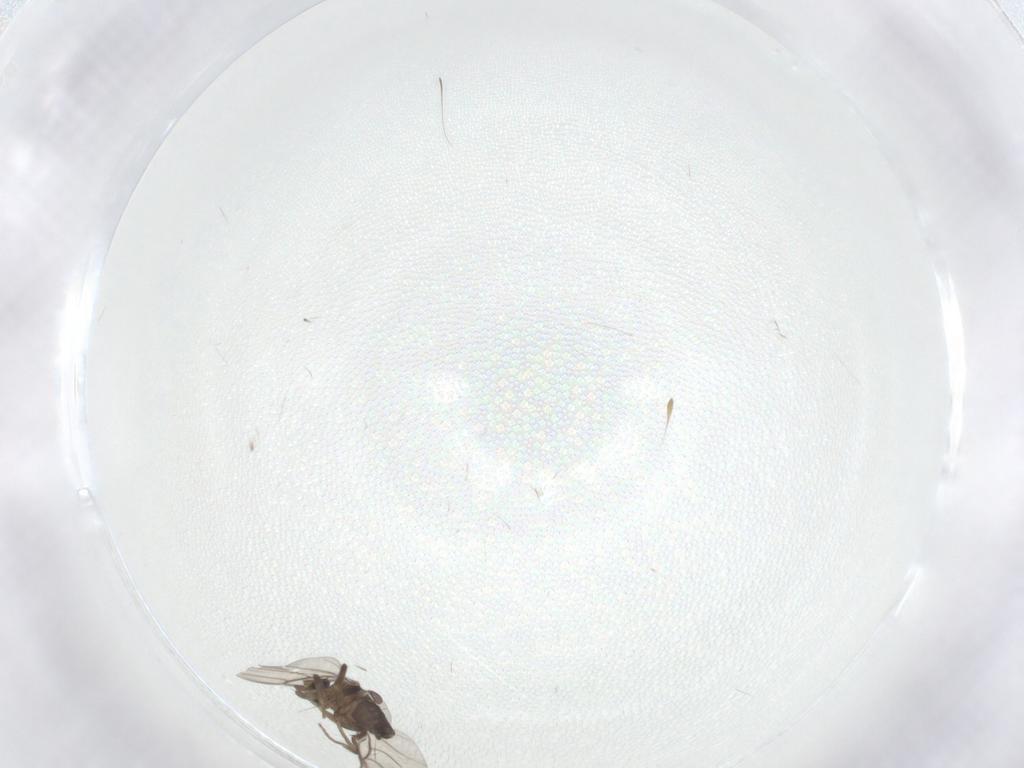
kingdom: Animalia
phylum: Arthropoda
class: Insecta
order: Diptera
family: Phoridae
